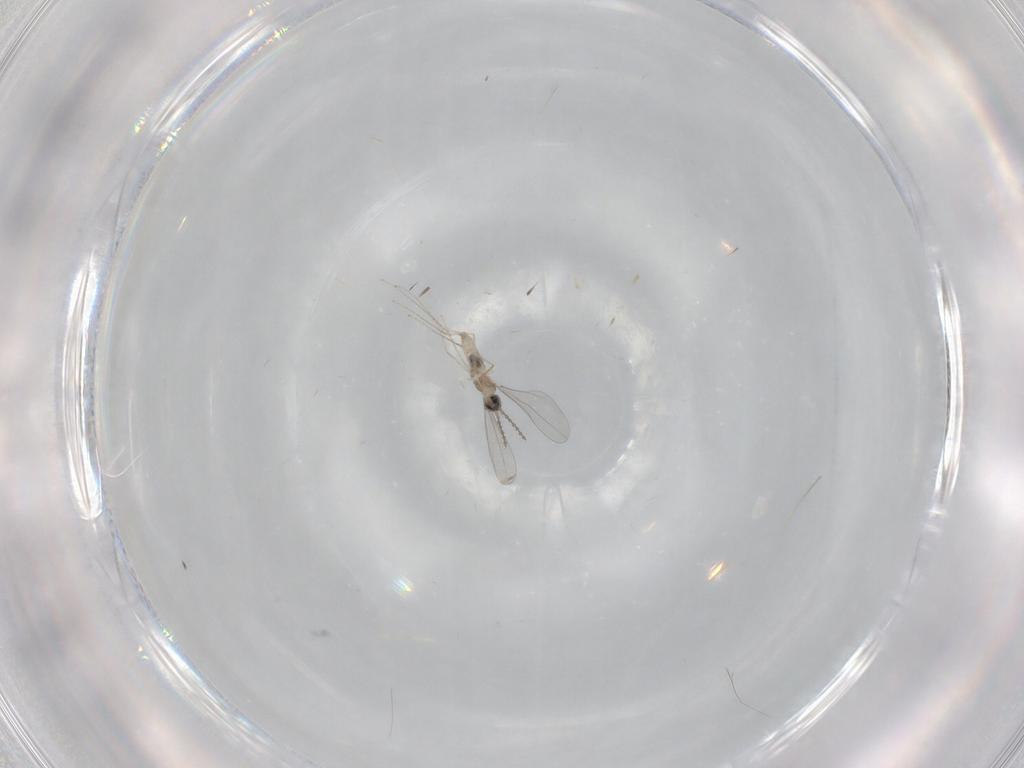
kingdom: Animalia
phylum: Arthropoda
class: Insecta
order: Diptera
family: Cecidomyiidae
